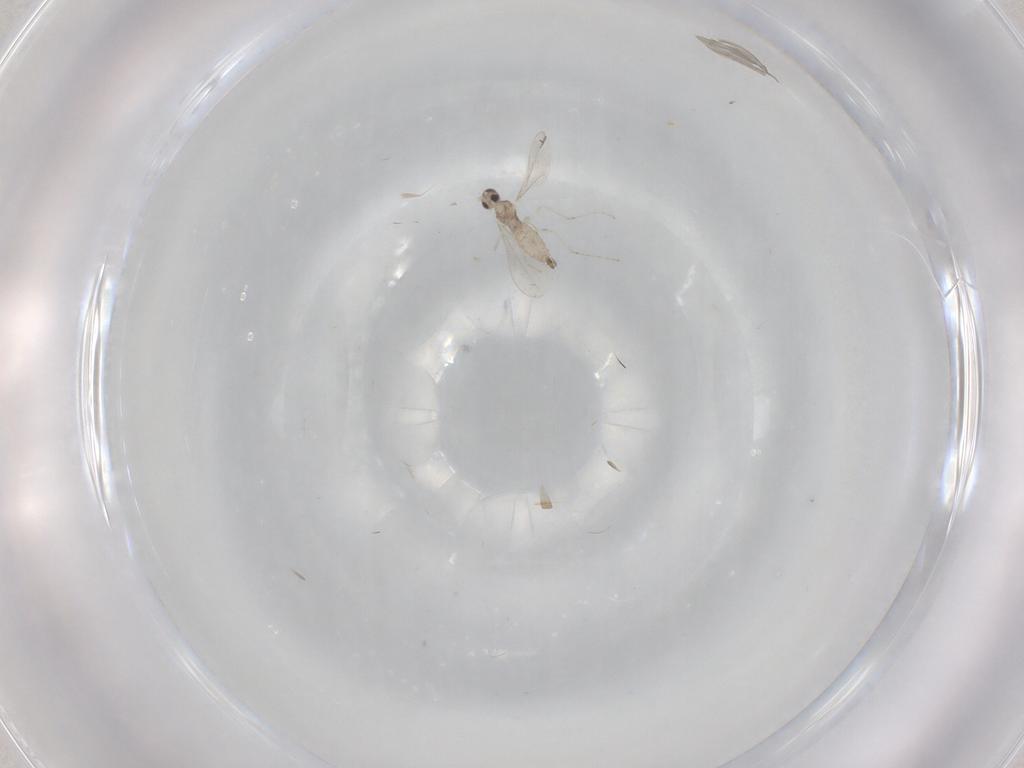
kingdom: Animalia
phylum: Arthropoda
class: Insecta
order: Diptera
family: Cecidomyiidae
